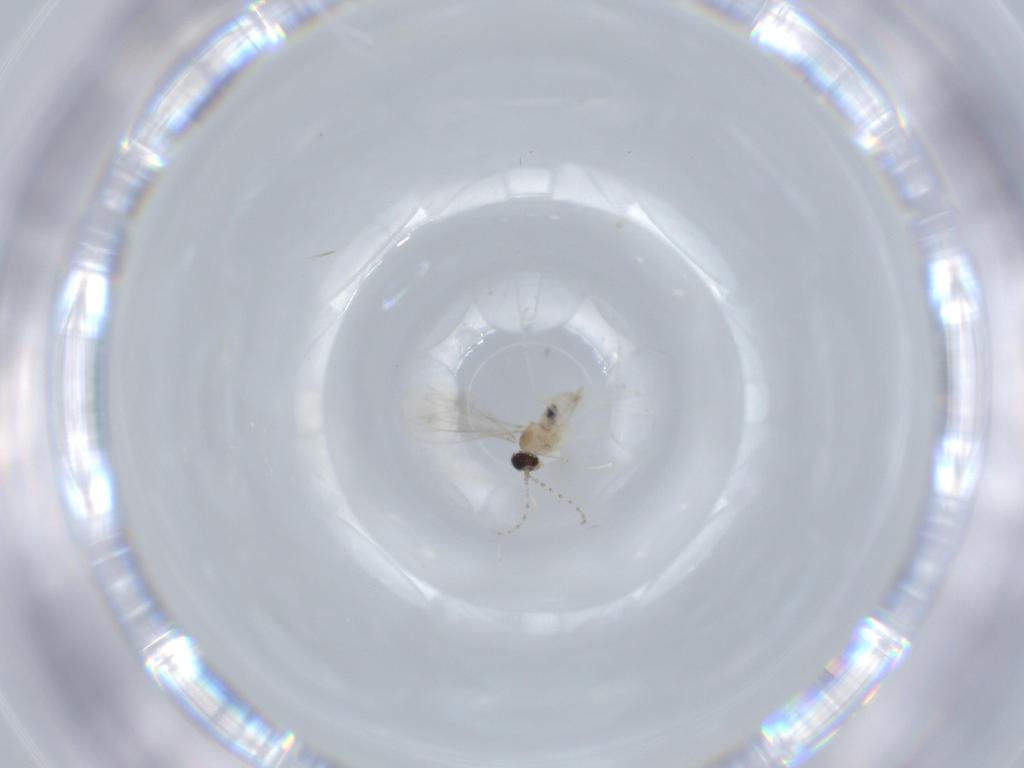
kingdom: Animalia
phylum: Arthropoda
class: Insecta
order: Diptera
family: Cecidomyiidae
